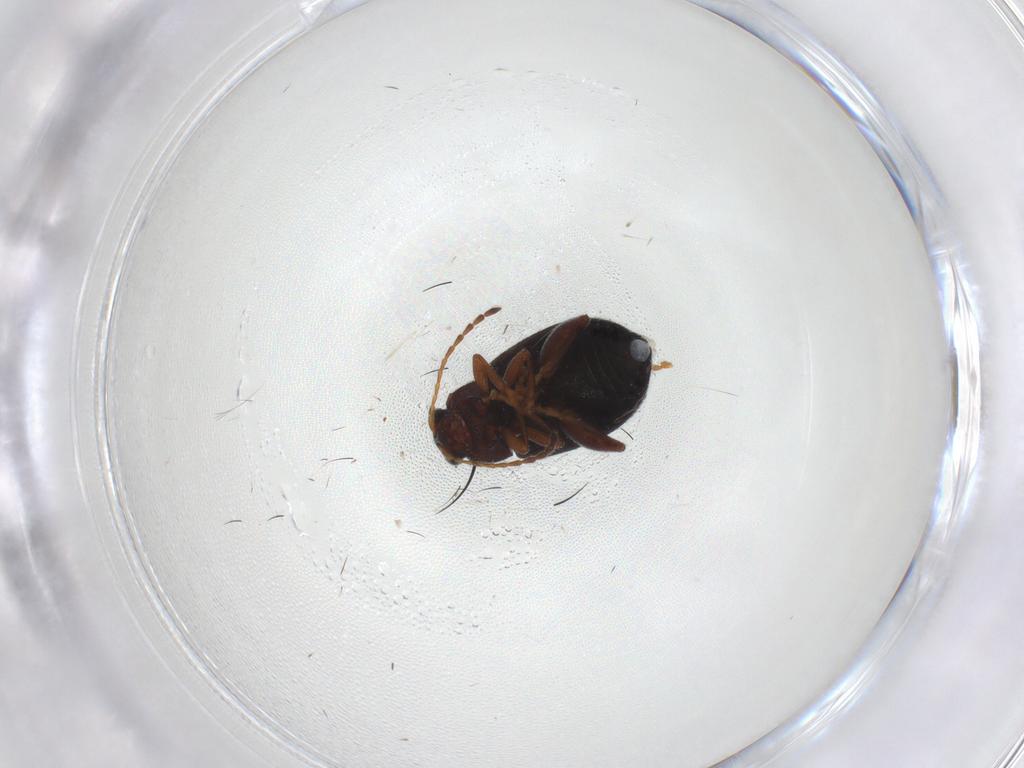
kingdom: Animalia
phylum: Arthropoda
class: Insecta
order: Coleoptera
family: Chrysomelidae
